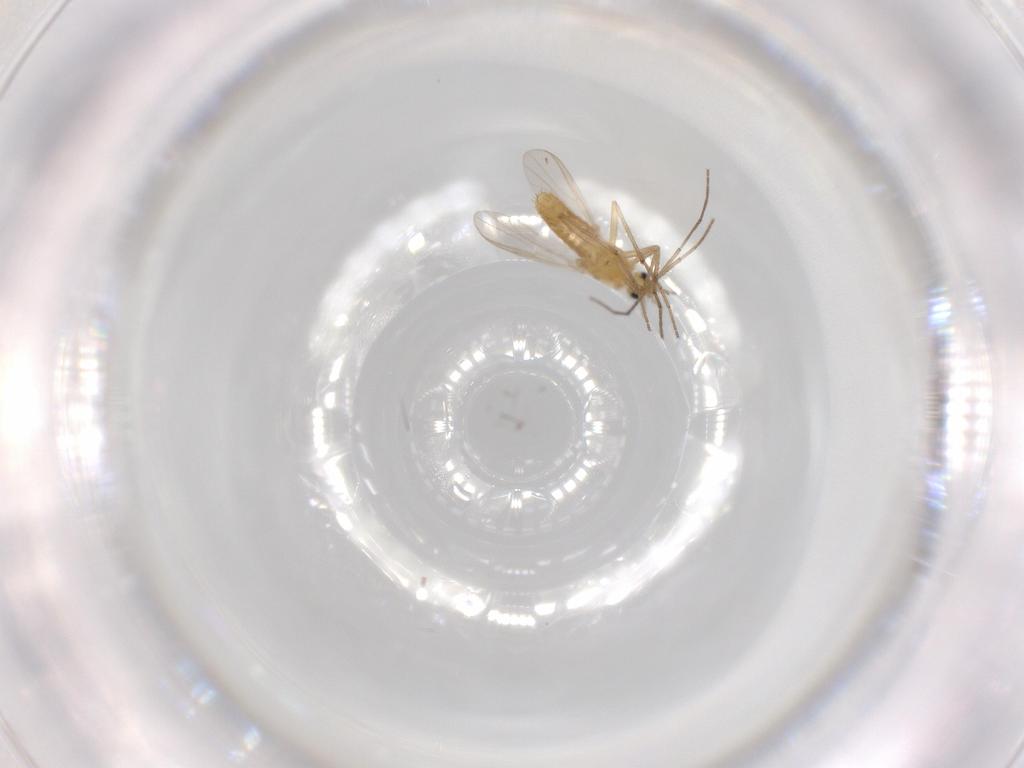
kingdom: Animalia
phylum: Arthropoda
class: Insecta
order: Diptera
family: Chironomidae
